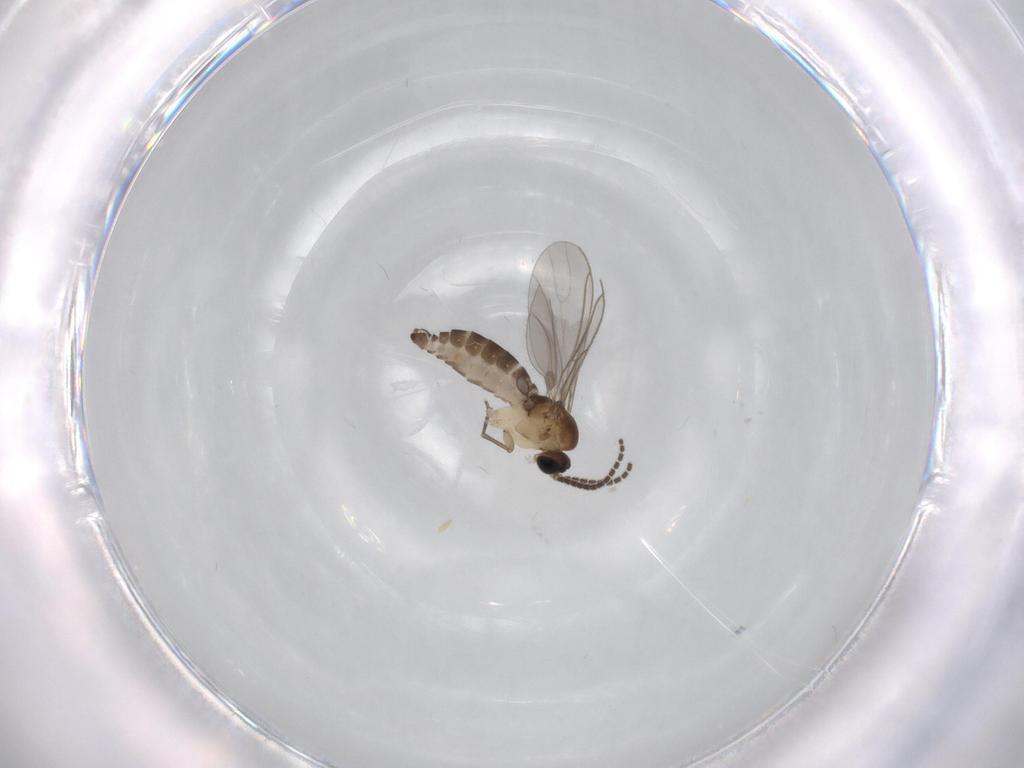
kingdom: Animalia
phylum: Arthropoda
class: Insecta
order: Diptera
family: Sciaridae
